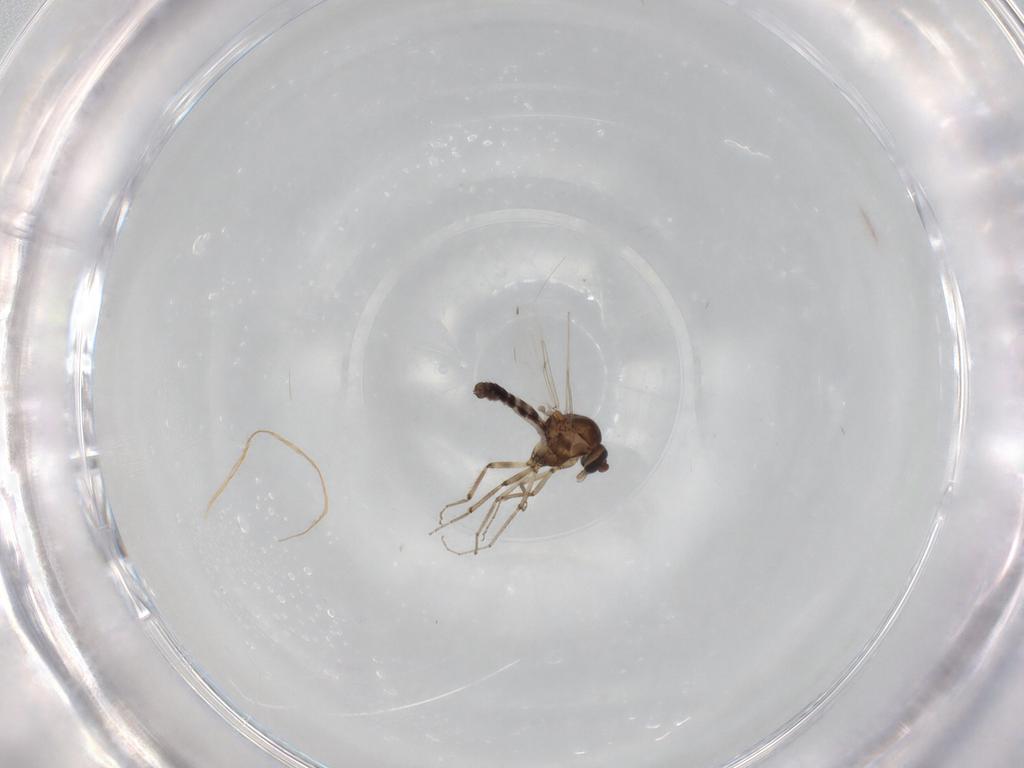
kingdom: Animalia
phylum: Arthropoda
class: Insecta
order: Diptera
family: Ceratopogonidae
